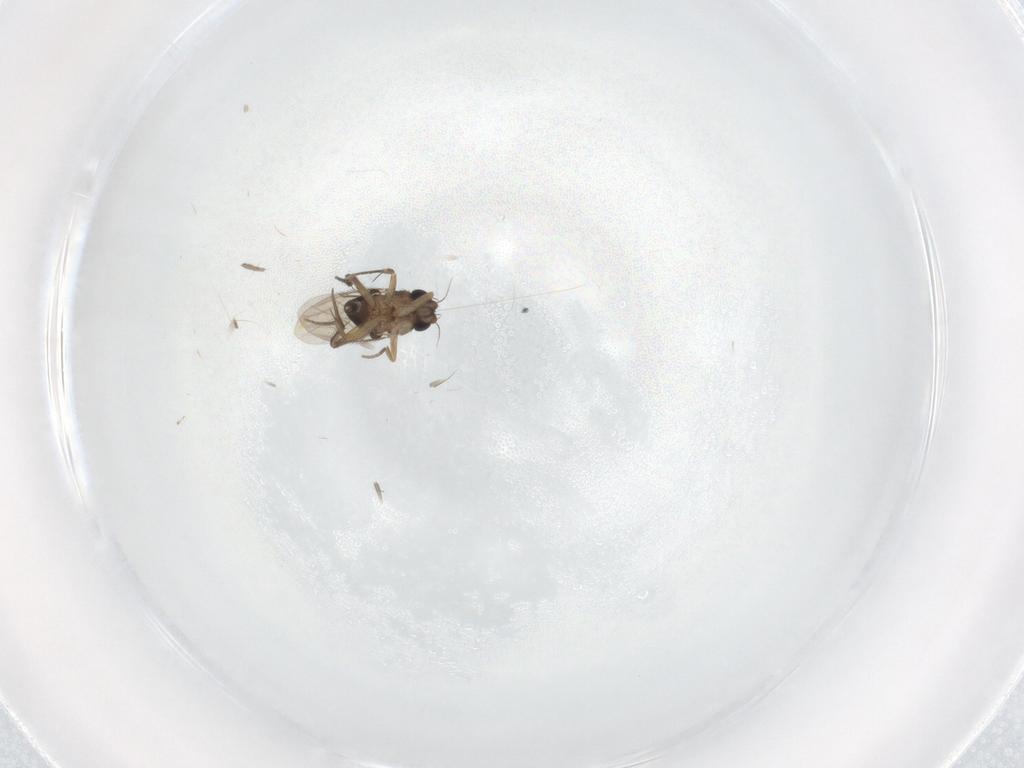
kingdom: Animalia
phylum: Arthropoda
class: Insecta
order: Diptera
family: Phoridae
